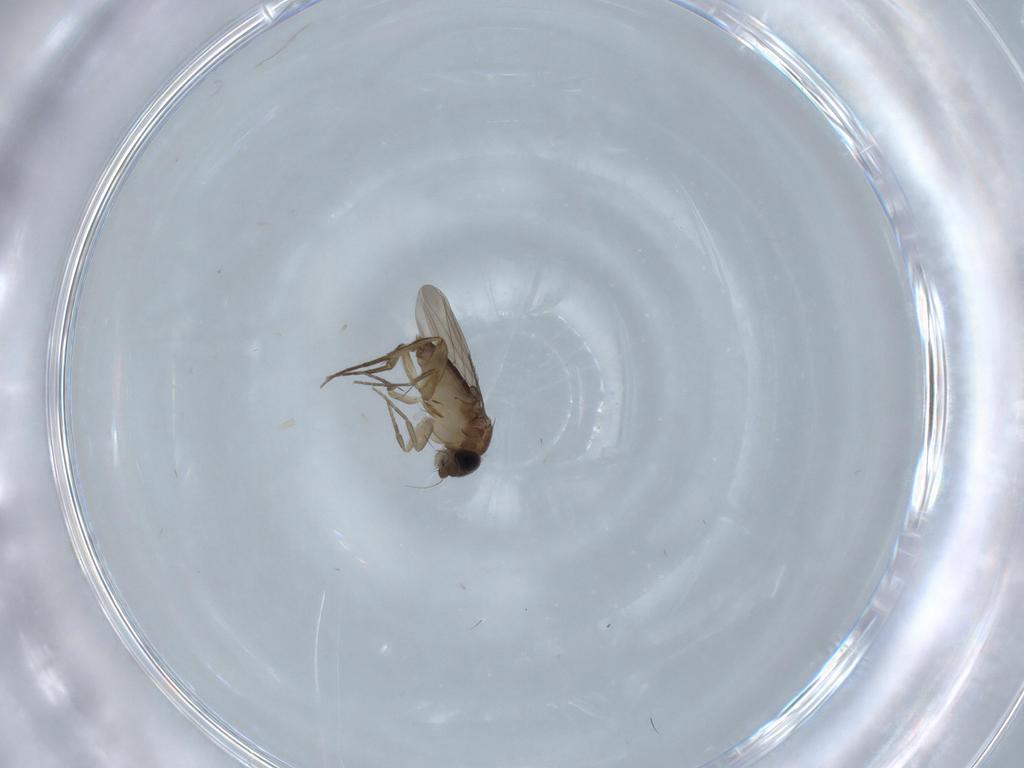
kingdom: Animalia
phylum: Arthropoda
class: Insecta
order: Diptera
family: Phoridae
